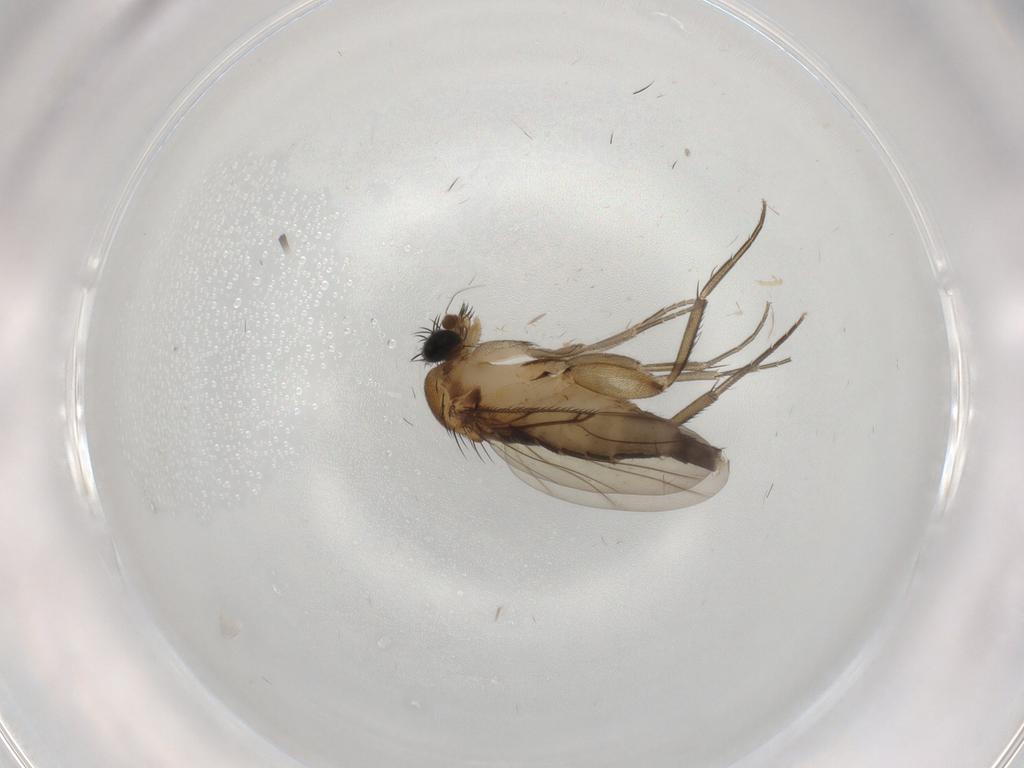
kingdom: Animalia
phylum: Arthropoda
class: Insecta
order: Diptera
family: Phoridae
